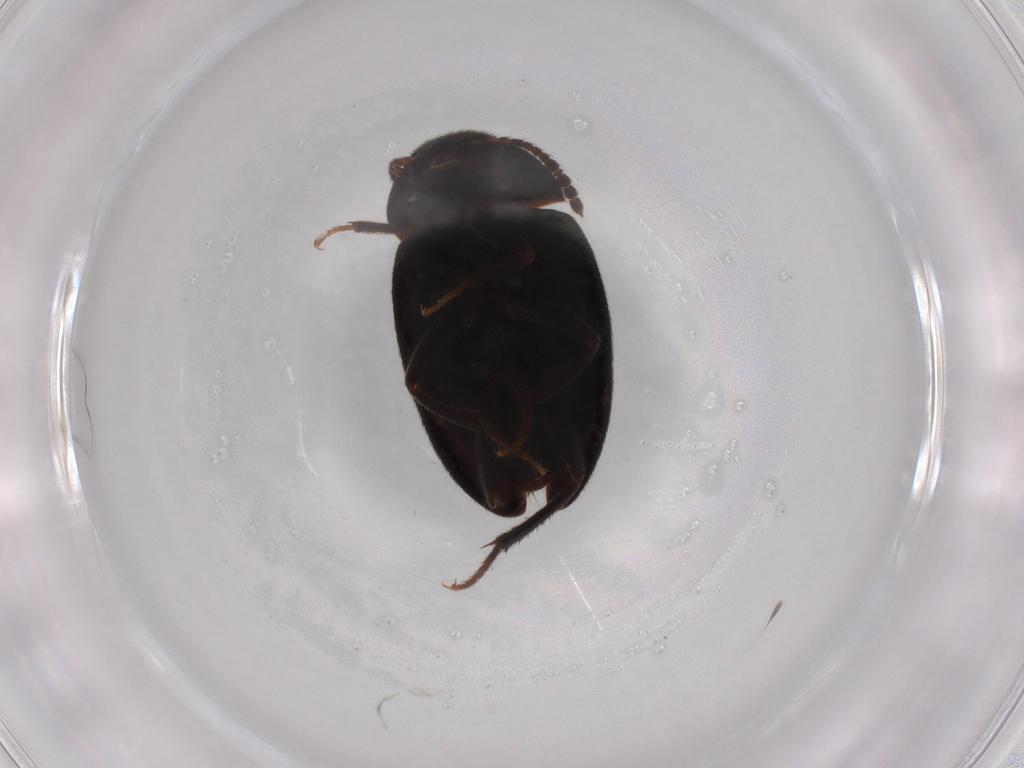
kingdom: Animalia
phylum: Arthropoda
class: Insecta
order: Coleoptera
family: Leiodidae
